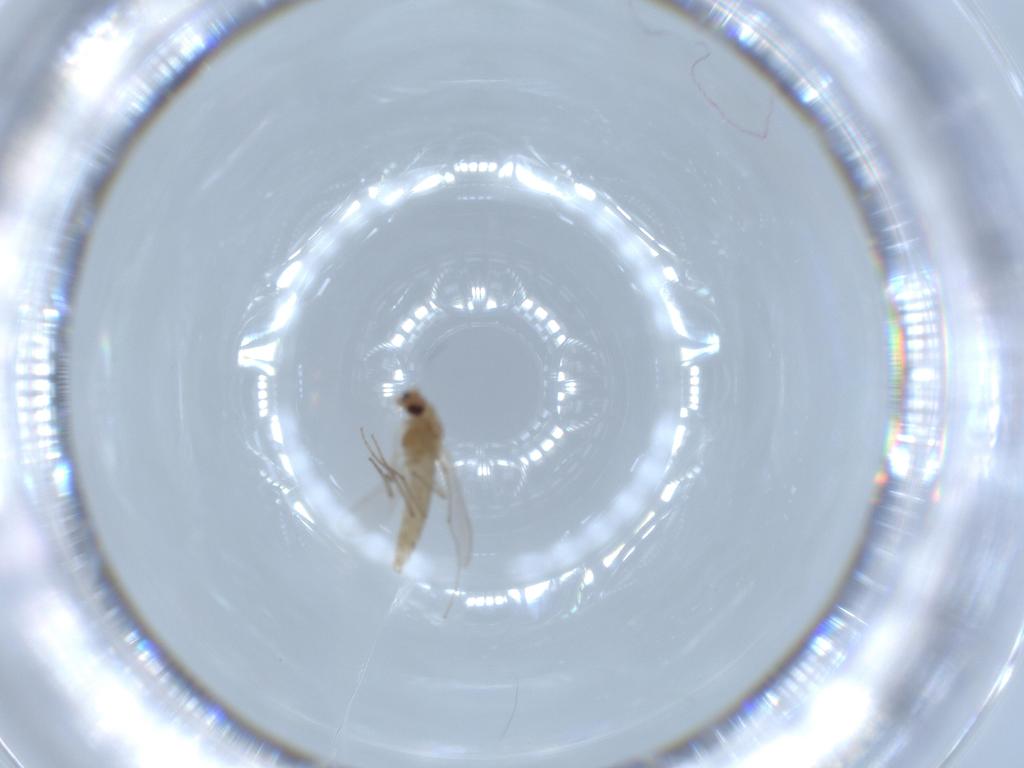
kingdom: Animalia
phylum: Arthropoda
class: Insecta
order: Diptera
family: Chironomidae
